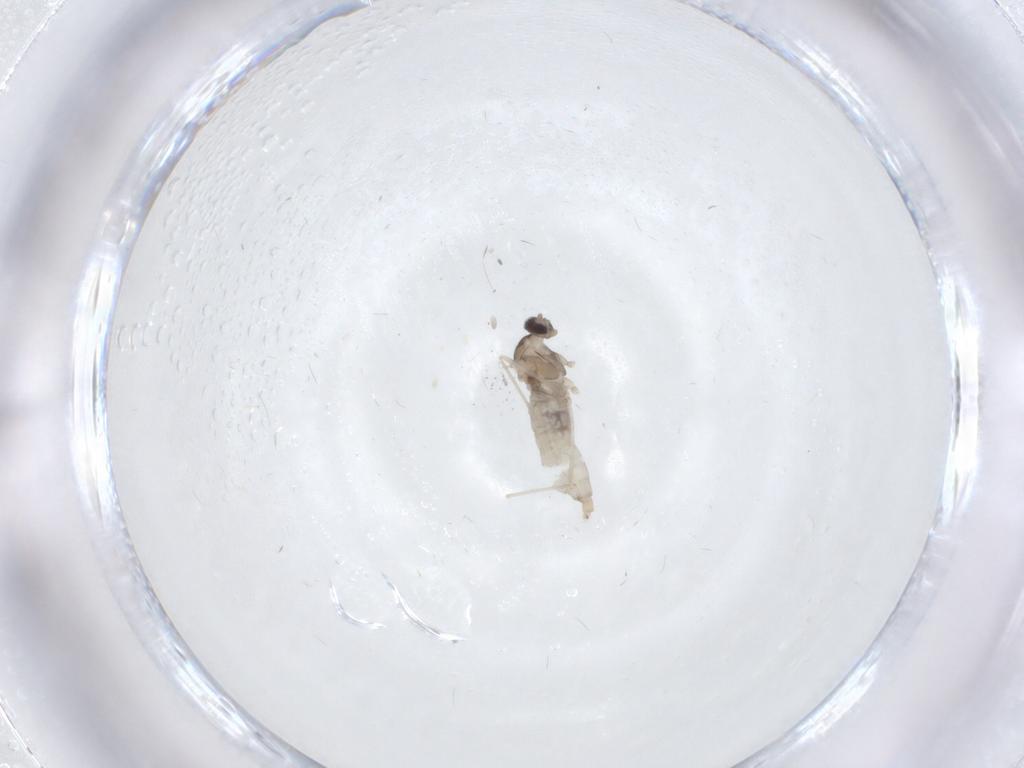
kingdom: Animalia
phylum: Arthropoda
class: Insecta
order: Diptera
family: Cecidomyiidae
